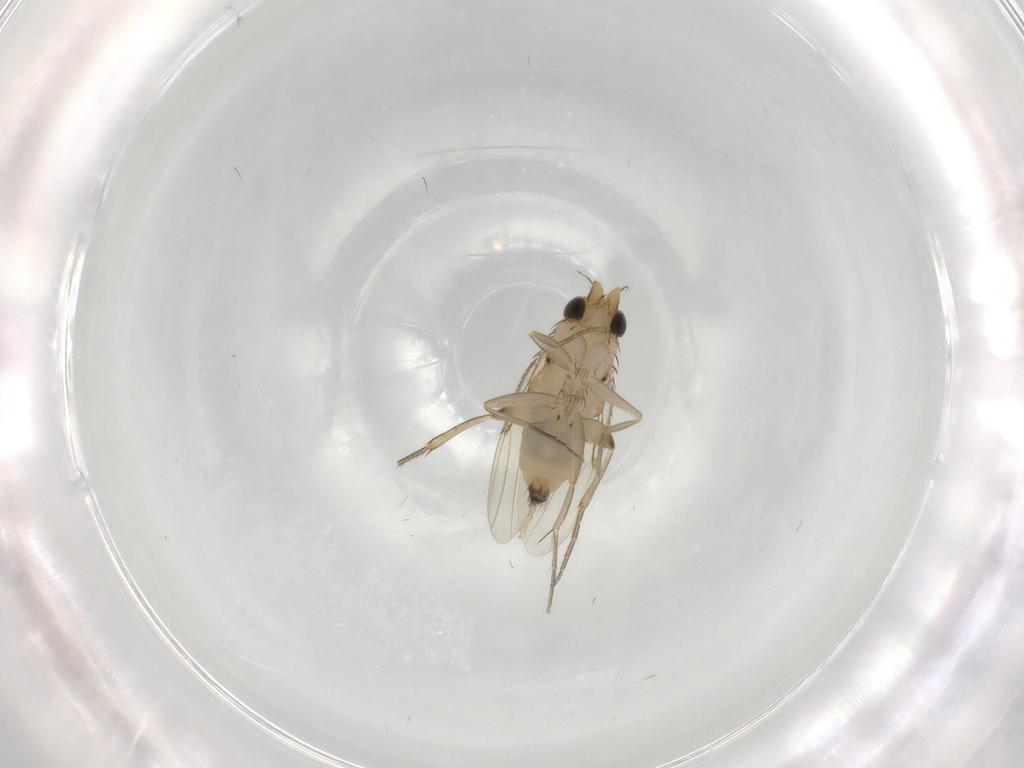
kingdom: Animalia
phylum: Arthropoda
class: Insecta
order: Diptera
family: Phoridae
